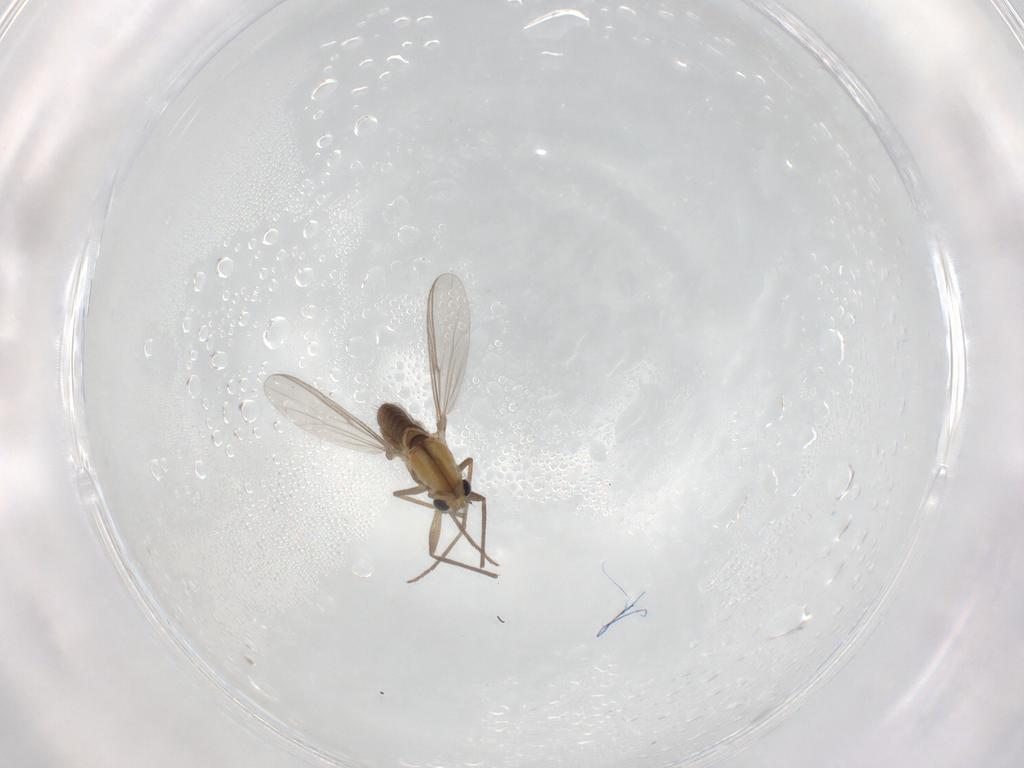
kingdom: Animalia
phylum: Arthropoda
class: Insecta
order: Diptera
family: Chironomidae
